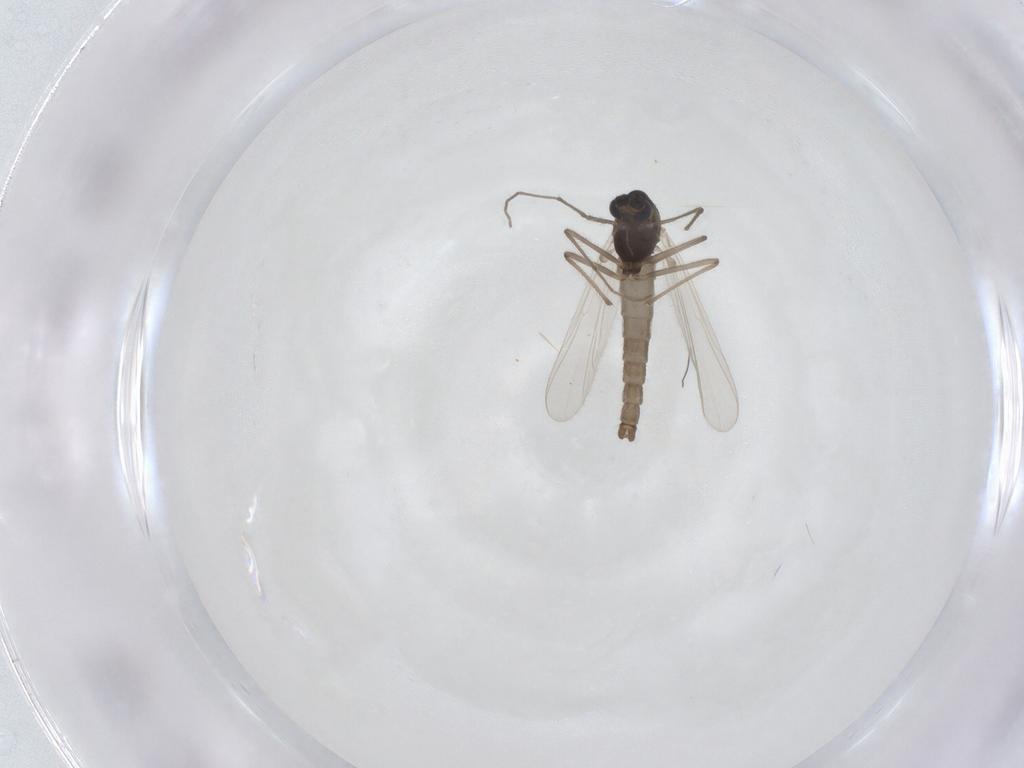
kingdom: Animalia
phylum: Arthropoda
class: Insecta
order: Diptera
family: Chironomidae
